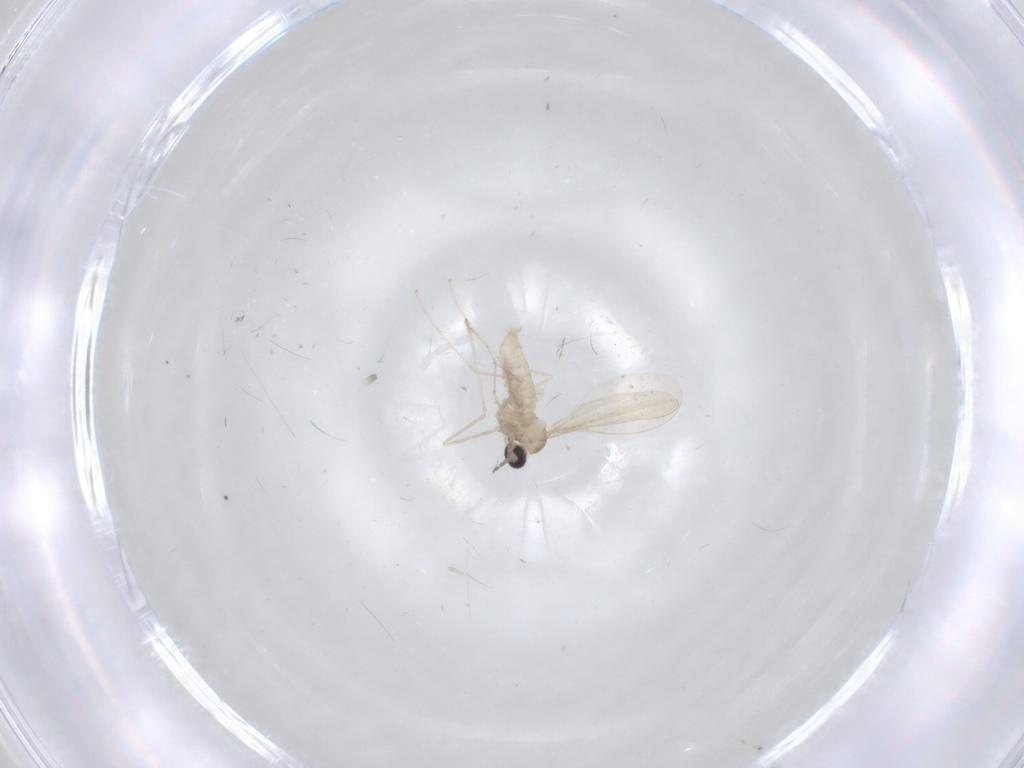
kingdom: Animalia
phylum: Arthropoda
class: Insecta
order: Diptera
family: Cecidomyiidae
